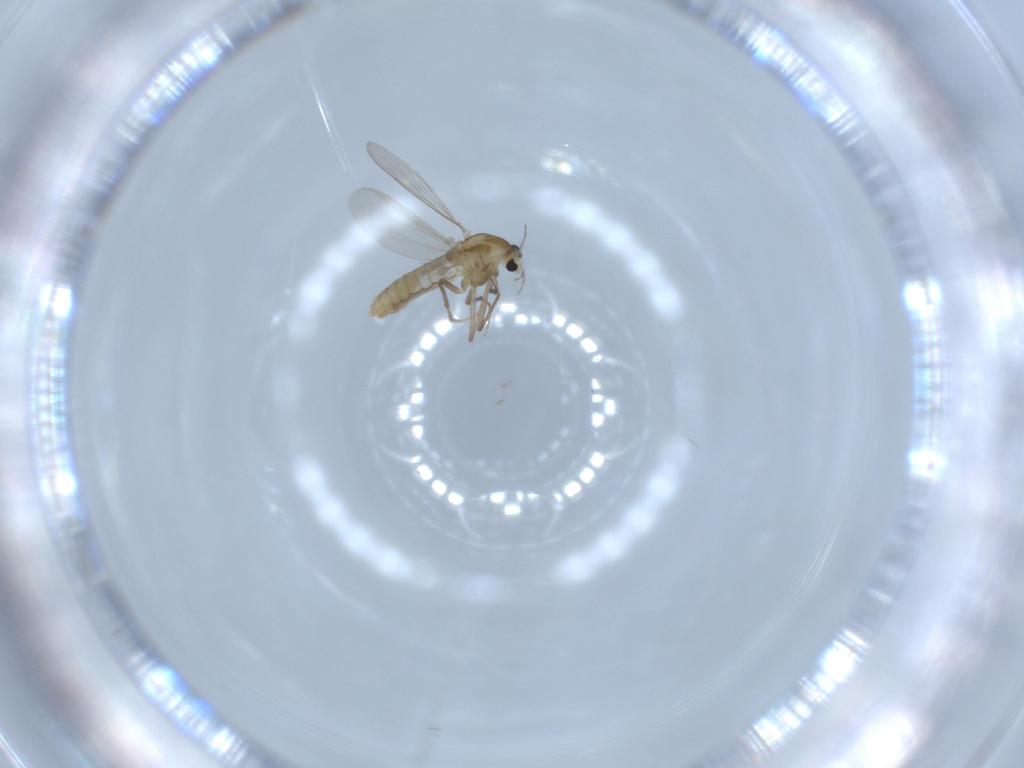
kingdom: Animalia
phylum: Arthropoda
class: Insecta
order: Diptera
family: Chironomidae
